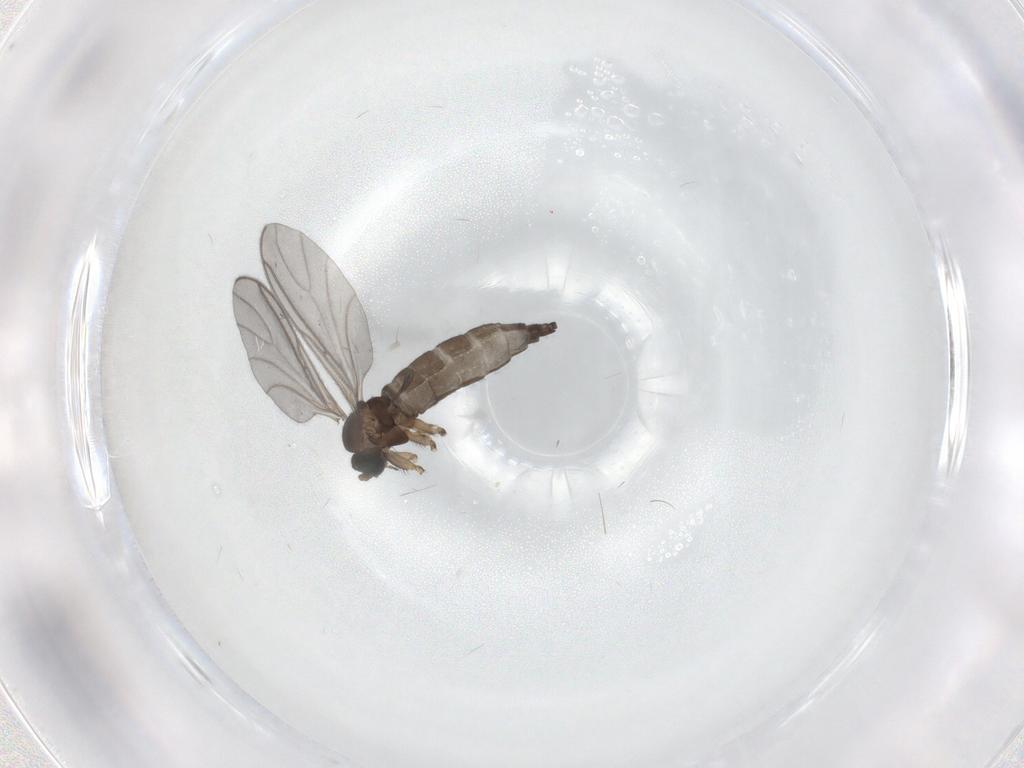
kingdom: Animalia
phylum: Arthropoda
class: Insecta
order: Diptera
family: Sciaridae
